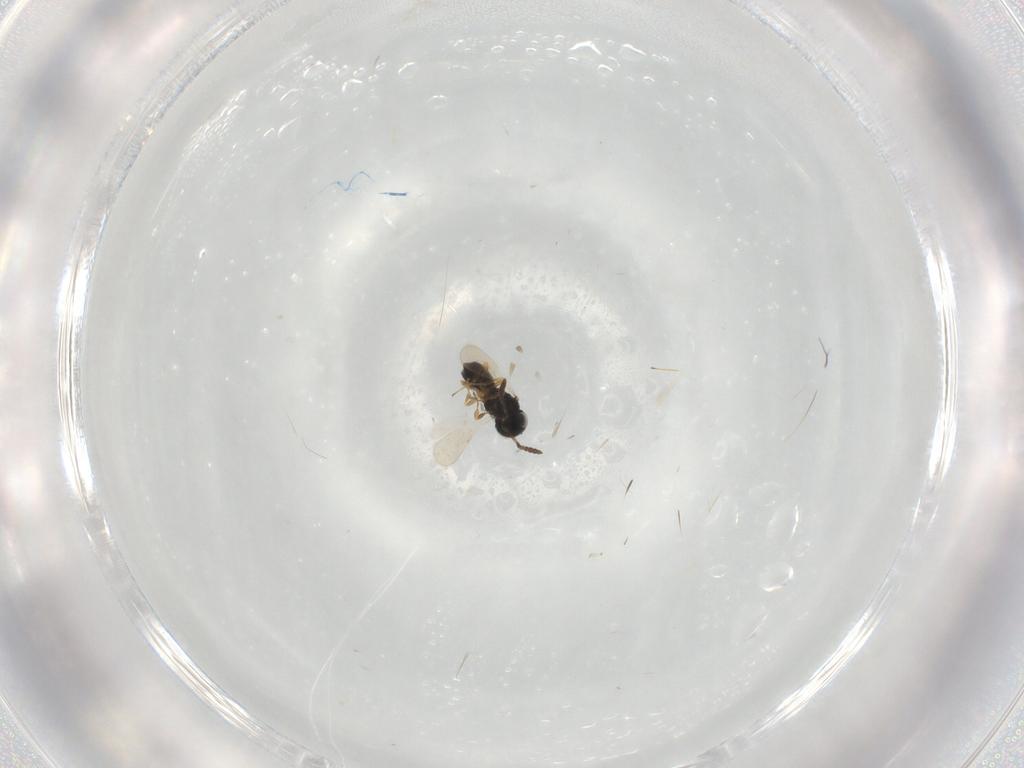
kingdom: Animalia
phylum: Arthropoda
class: Insecta
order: Hymenoptera
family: Scelionidae
